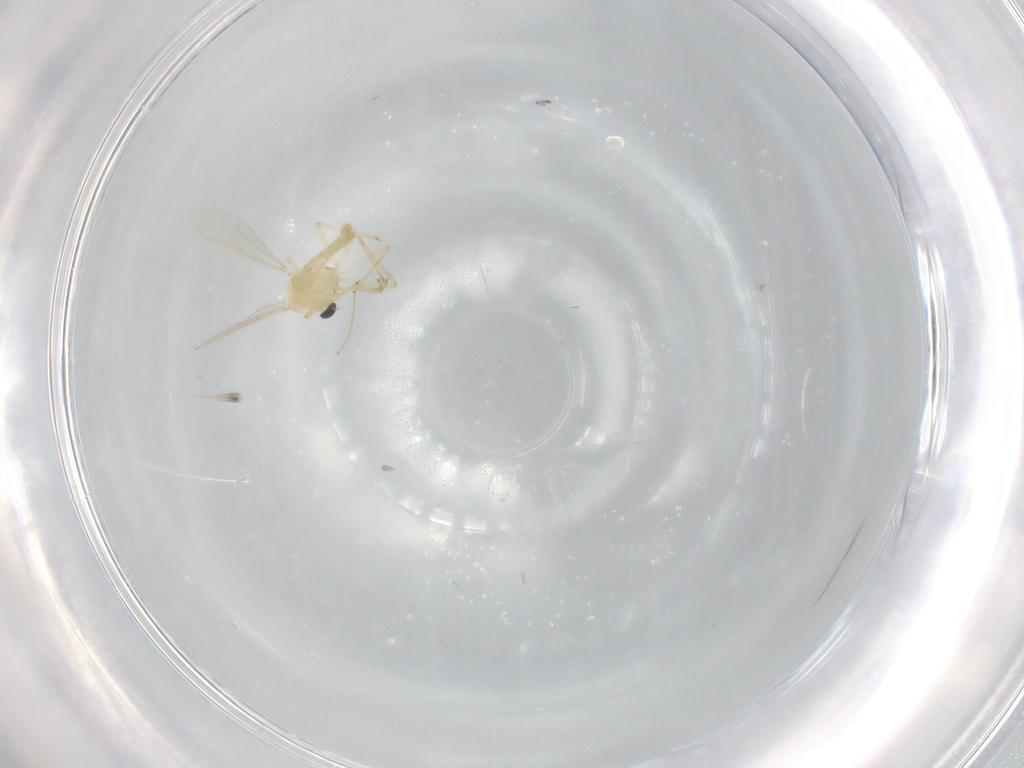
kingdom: Animalia
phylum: Arthropoda
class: Insecta
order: Diptera
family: Chironomidae
